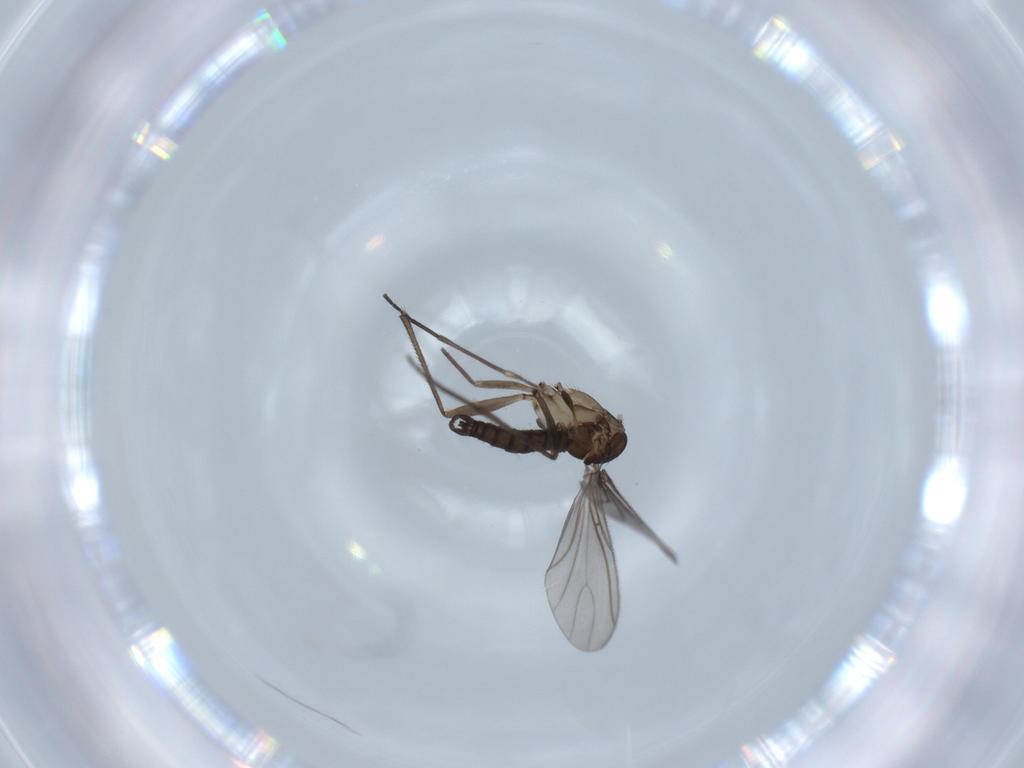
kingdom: Animalia
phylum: Arthropoda
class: Insecta
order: Diptera
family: Sciaridae
